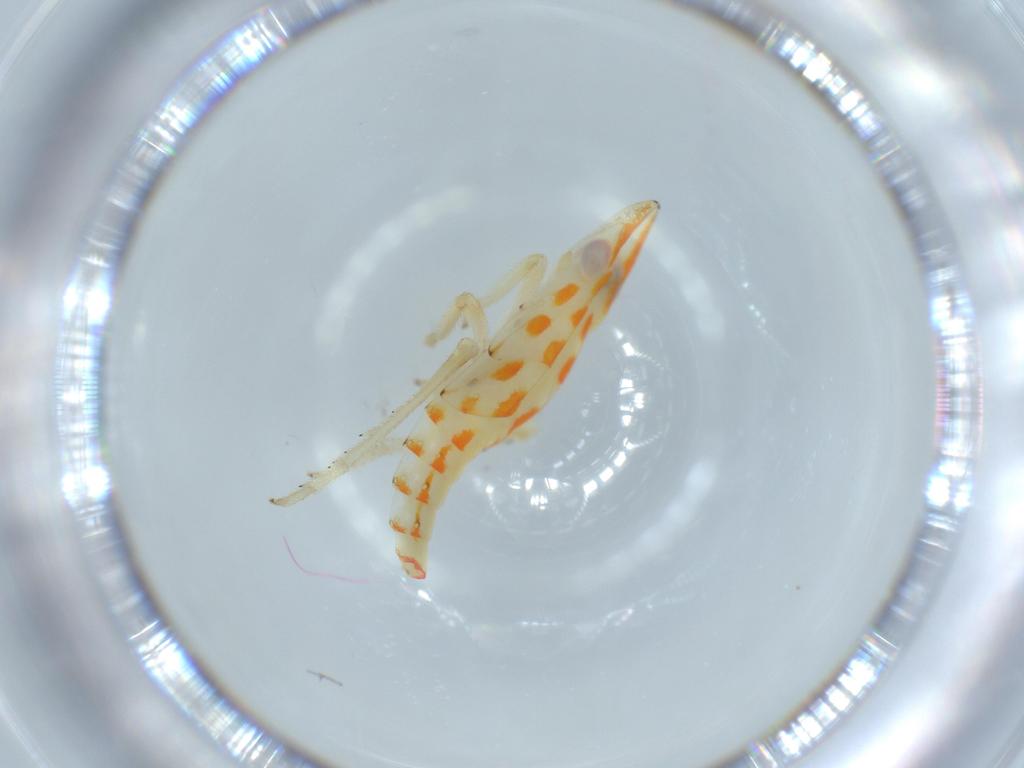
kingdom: Animalia
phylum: Arthropoda
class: Insecta
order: Hemiptera
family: Tropiduchidae
